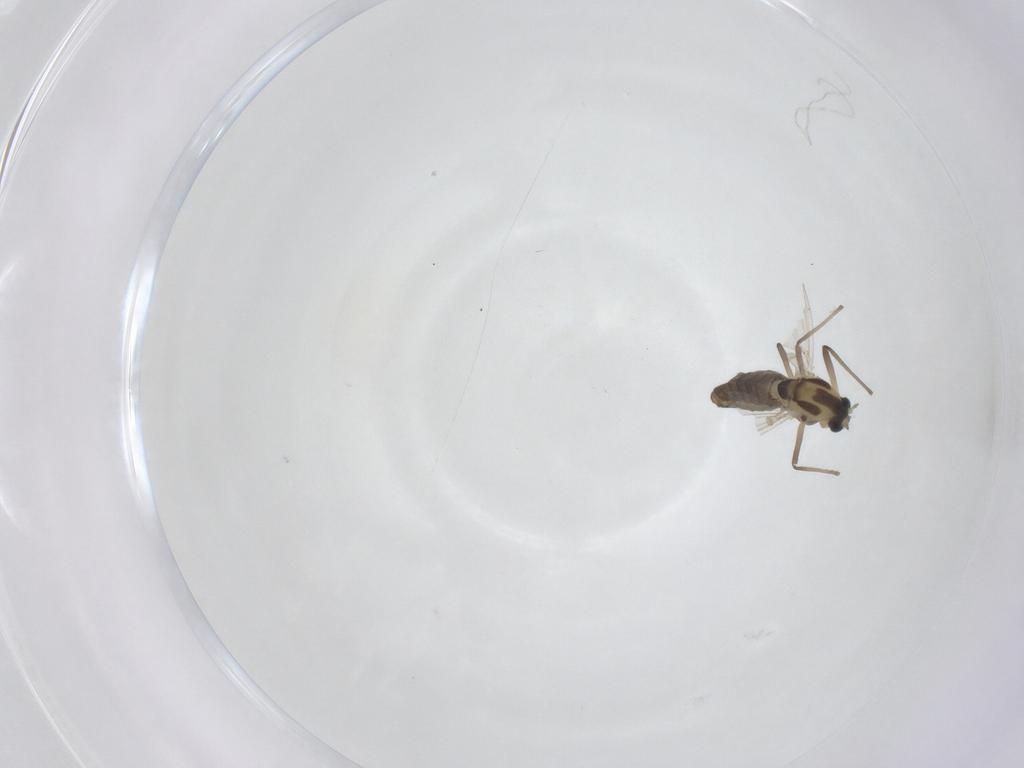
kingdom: Animalia
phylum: Arthropoda
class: Insecta
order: Diptera
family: Chironomidae
